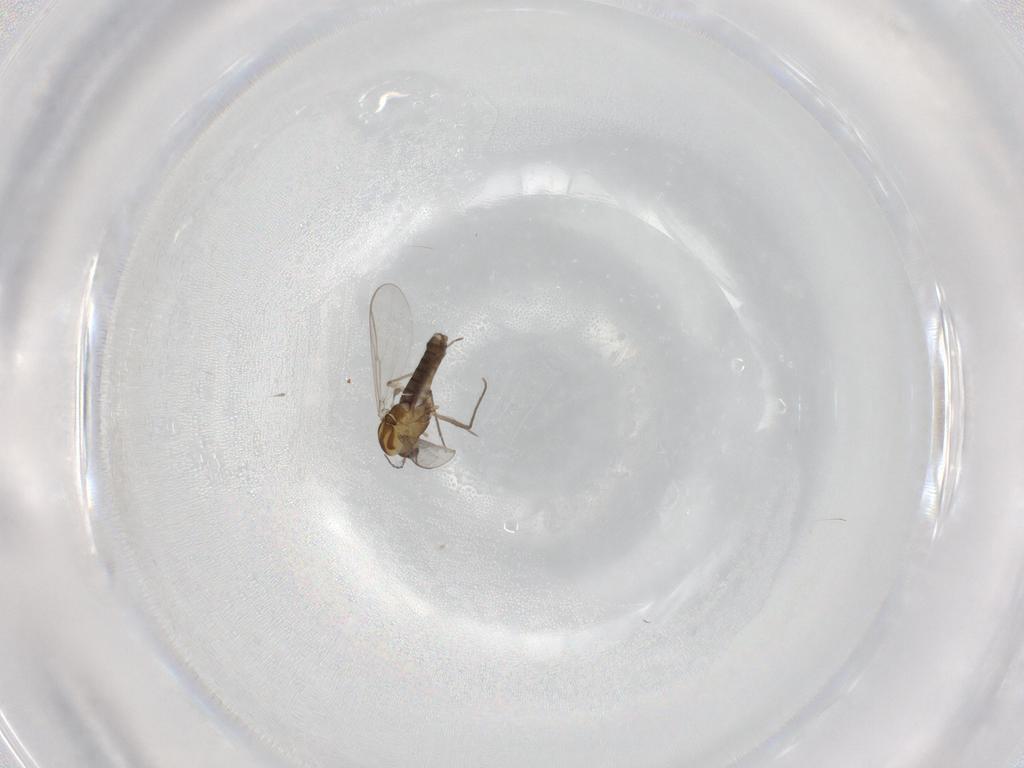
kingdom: Animalia
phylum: Arthropoda
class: Insecta
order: Diptera
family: Chironomidae
